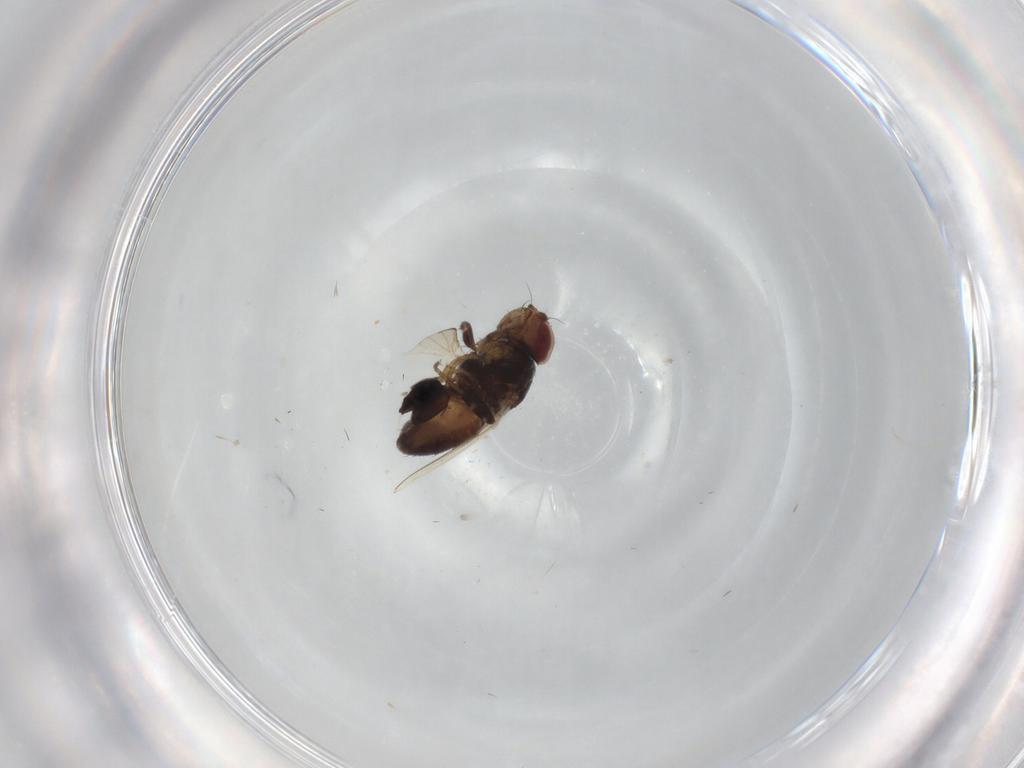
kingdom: Animalia
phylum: Arthropoda
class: Insecta
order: Diptera
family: Milichiidae
